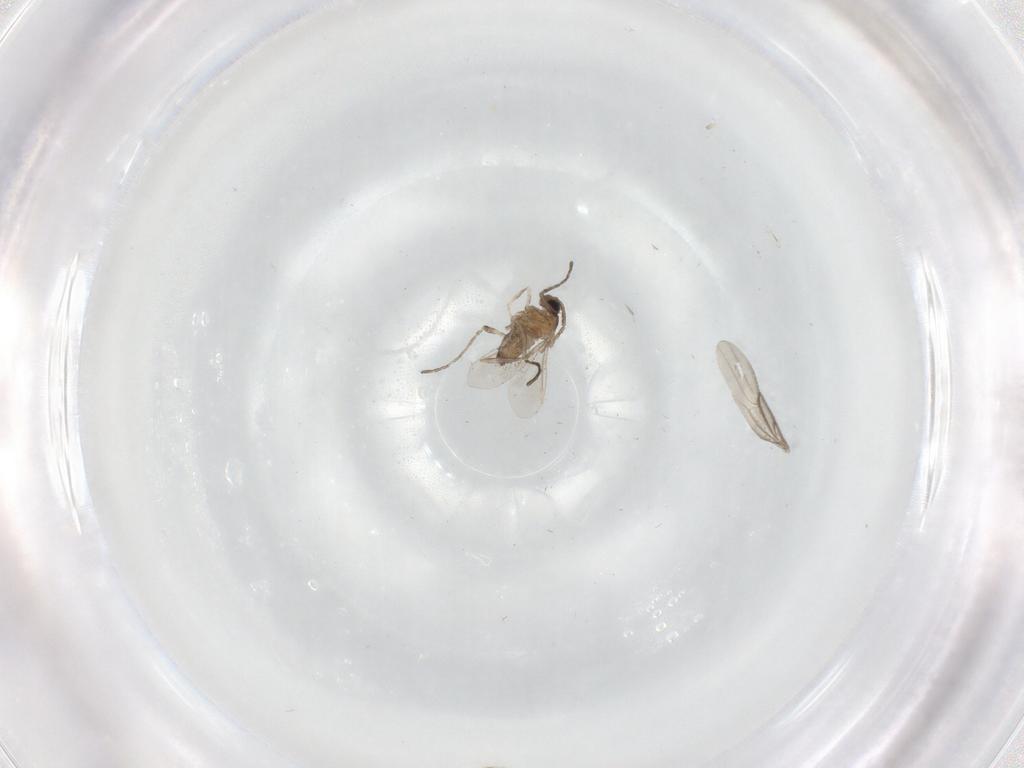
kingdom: Animalia
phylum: Arthropoda
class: Insecta
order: Diptera
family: Cecidomyiidae
